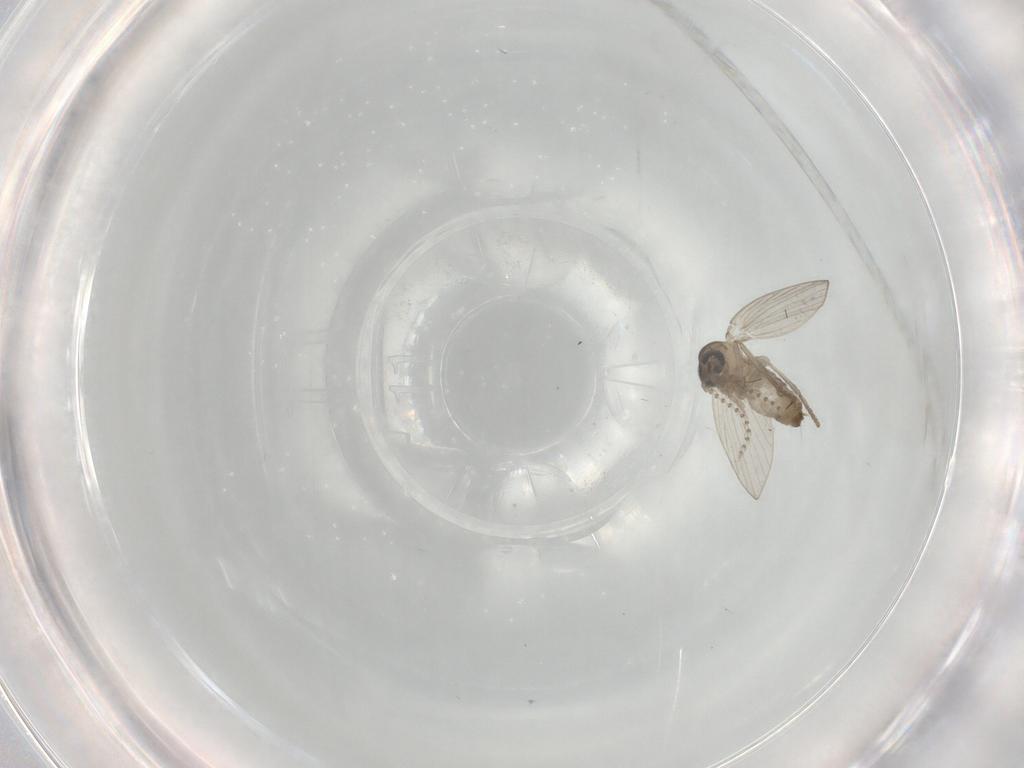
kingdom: Animalia
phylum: Arthropoda
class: Insecta
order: Diptera
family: Psychodidae
